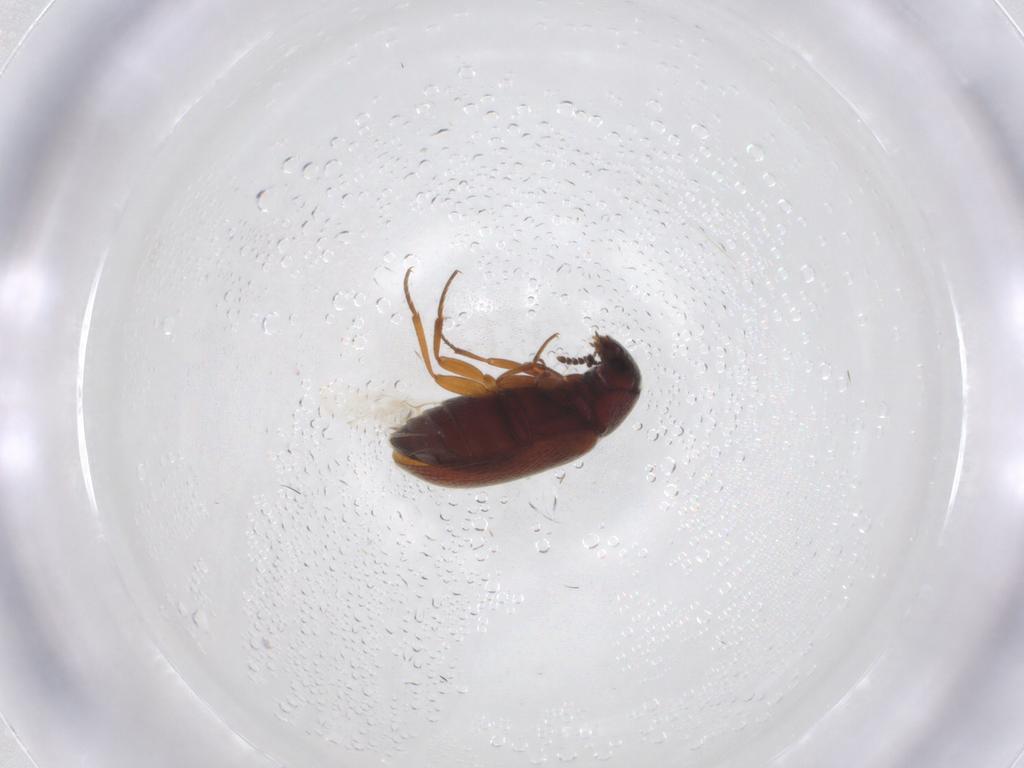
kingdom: Animalia
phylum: Arthropoda
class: Insecta
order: Coleoptera
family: Rhadalidae
